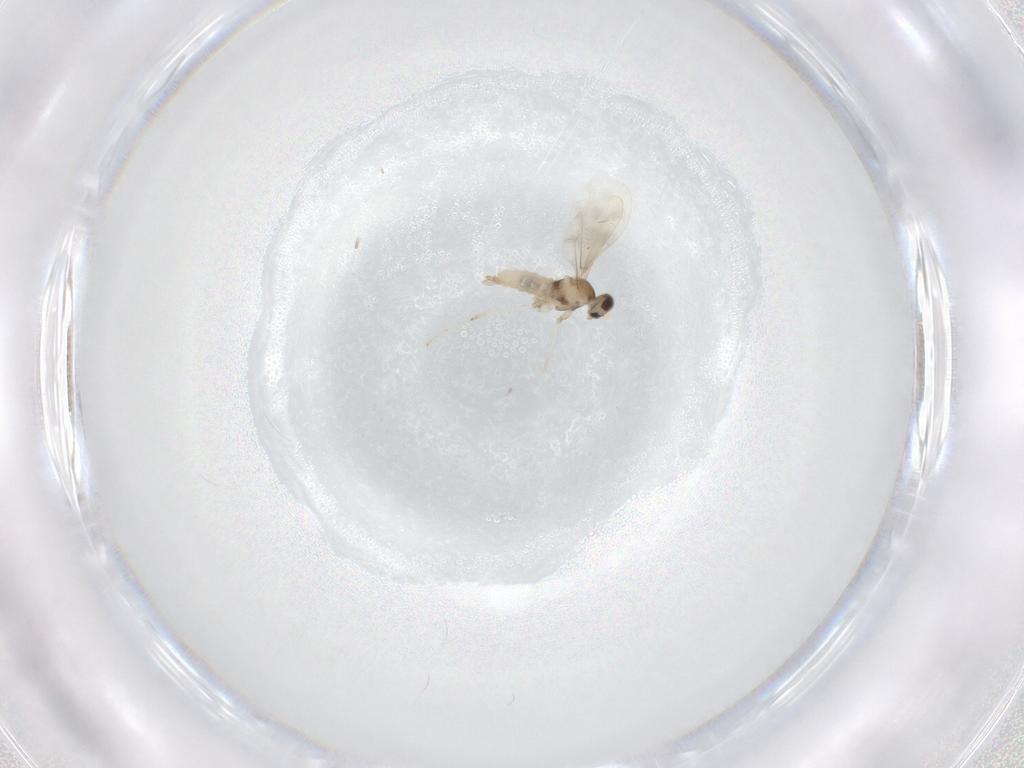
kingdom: Animalia
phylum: Arthropoda
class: Insecta
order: Diptera
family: Cecidomyiidae
